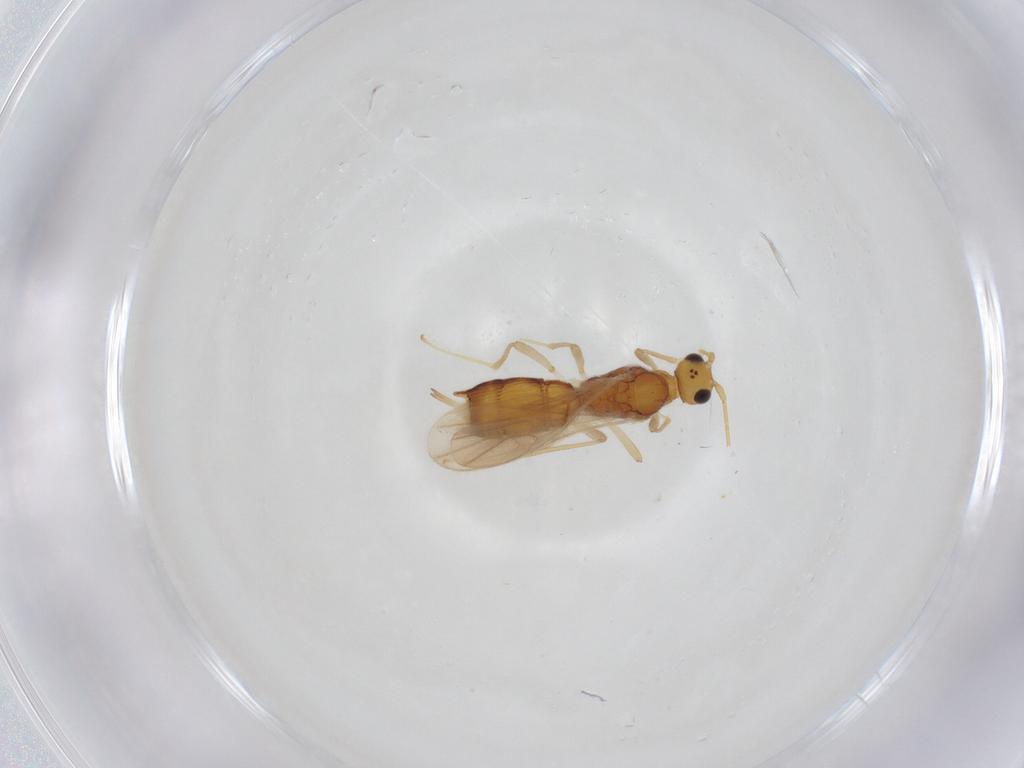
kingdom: Animalia
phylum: Arthropoda
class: Insecta
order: Hymenoptera
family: Braconidae
